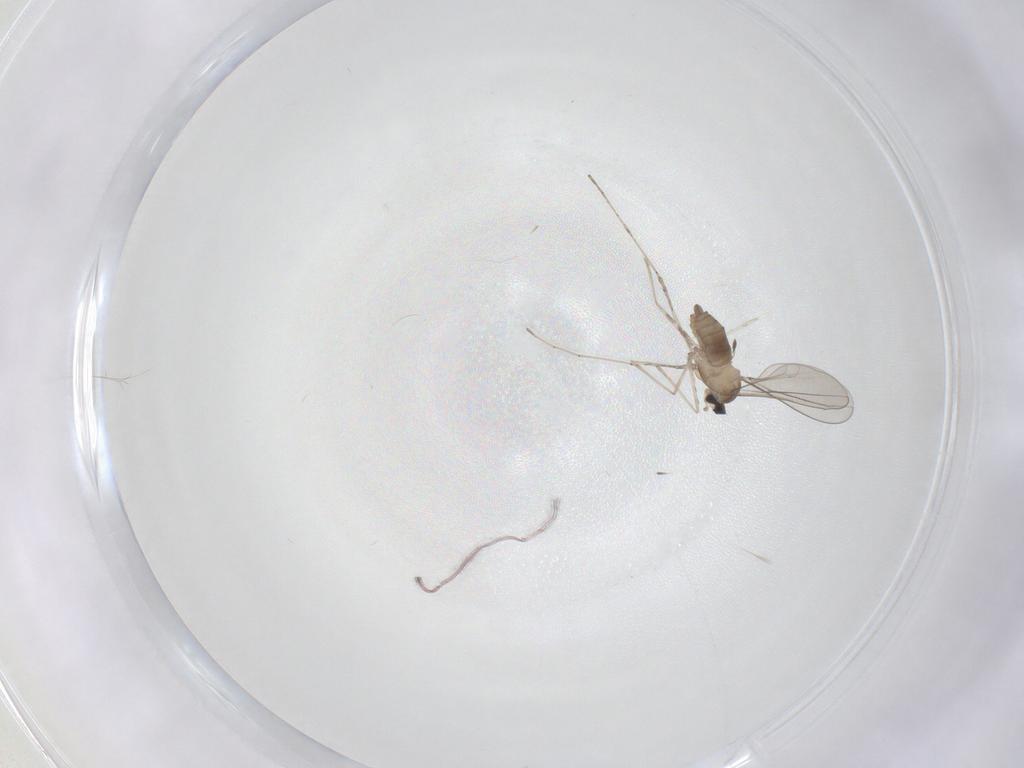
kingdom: Animalia
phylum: Arthropoda
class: Insecta
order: Diptera
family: Cecidomyiidae
